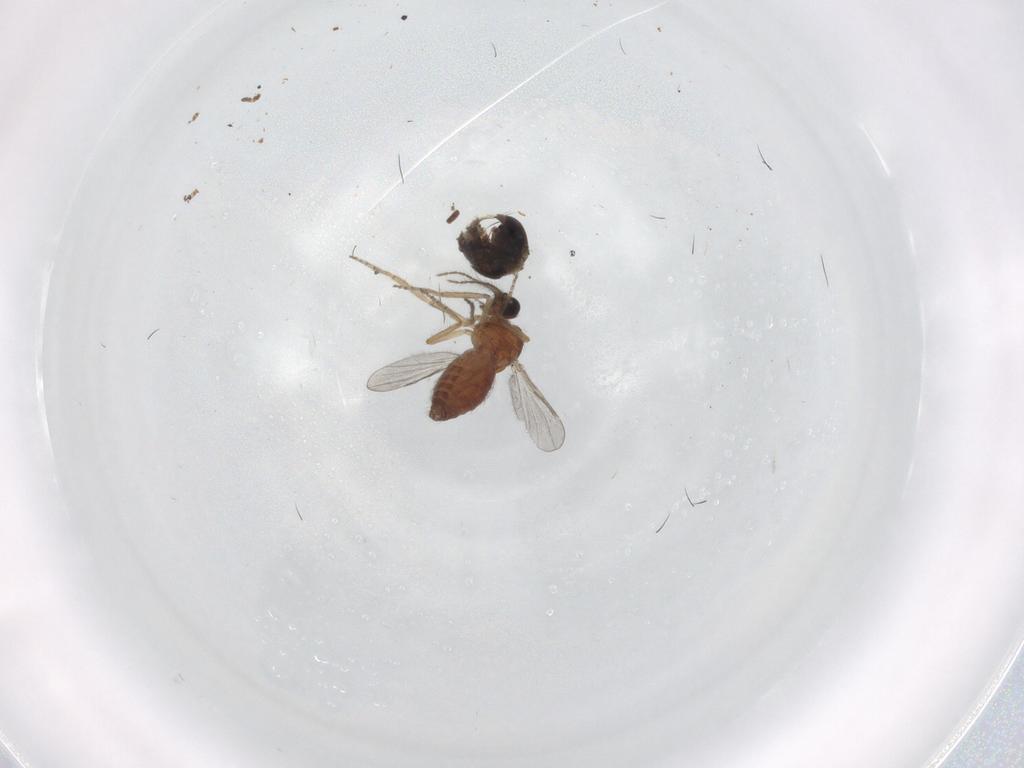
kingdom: Animalia
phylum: Arthropoda
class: Insecta
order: Diptera
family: Ceratopogonidae
